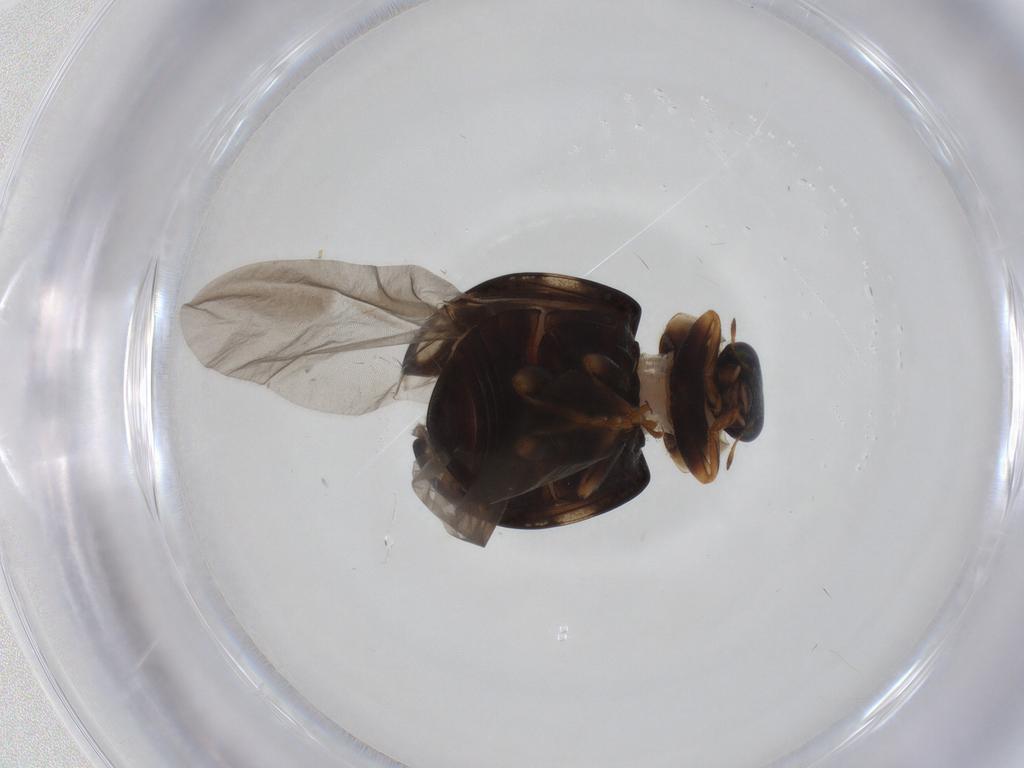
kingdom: Animalia
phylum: Arthropoda
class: Insecta
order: Coleoptera
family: Coccinellidae
